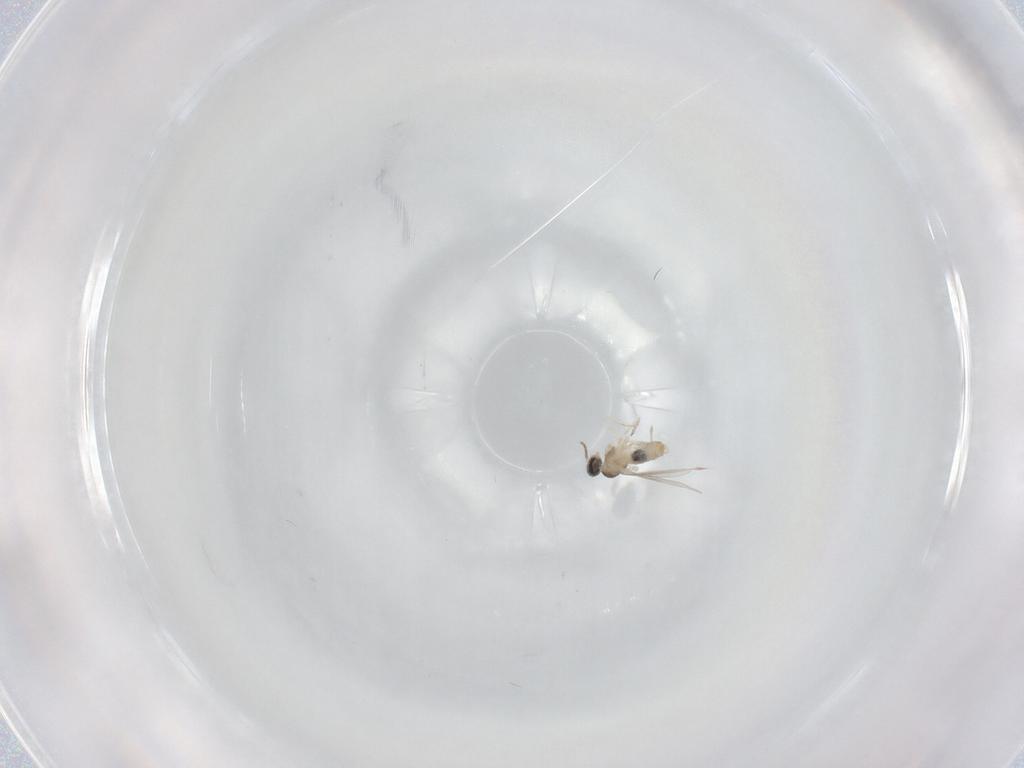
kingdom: Animalia
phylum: Arthropoda
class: Insecta
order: Diptera
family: Cecidomyiidae
